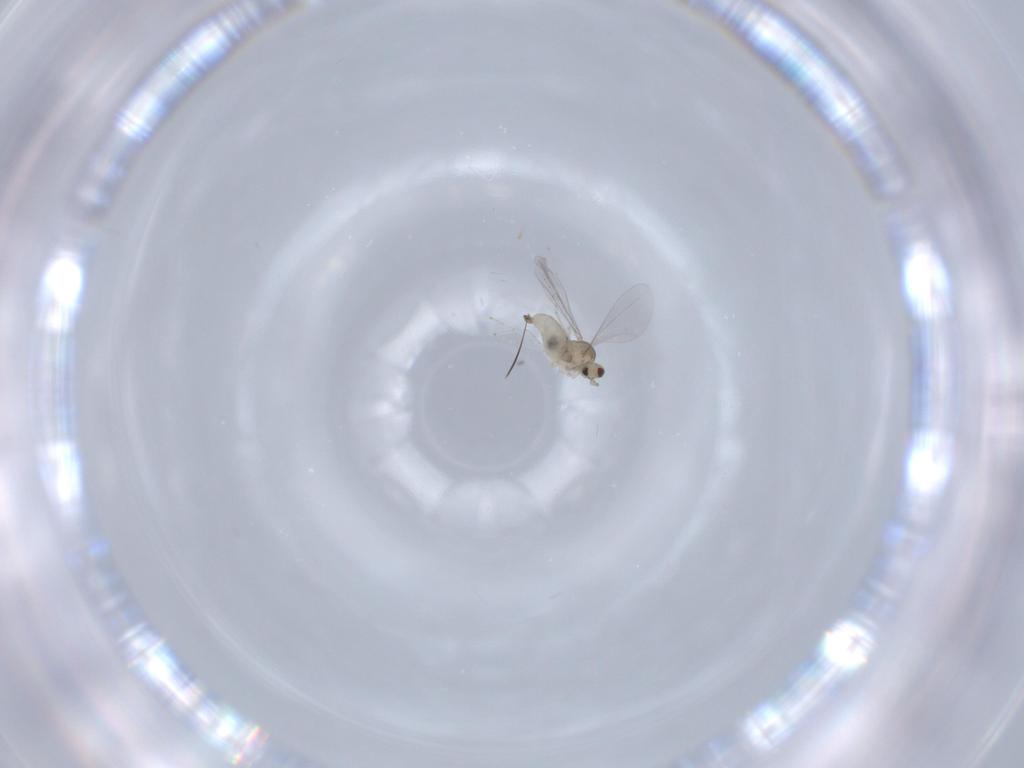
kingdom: Animalia
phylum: Arthropoda
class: Insecta
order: Diptera
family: Cecidomyiidae
